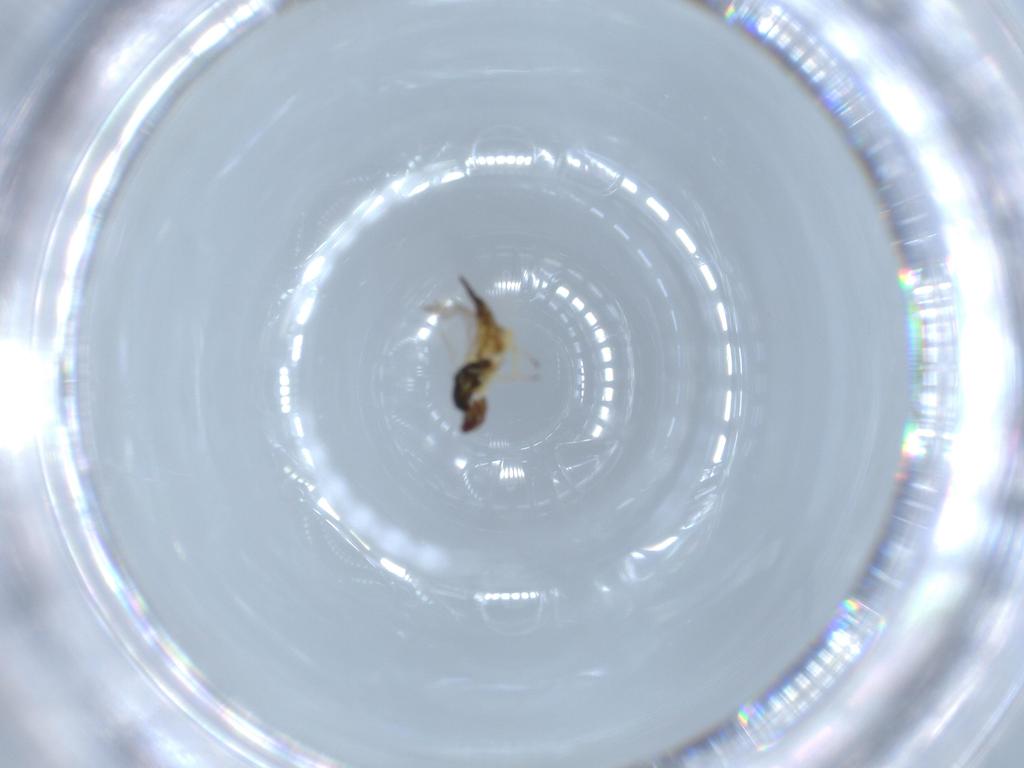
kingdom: Animalia
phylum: Arthropoda
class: Insecta
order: Hymenoptera
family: Eulophidae
